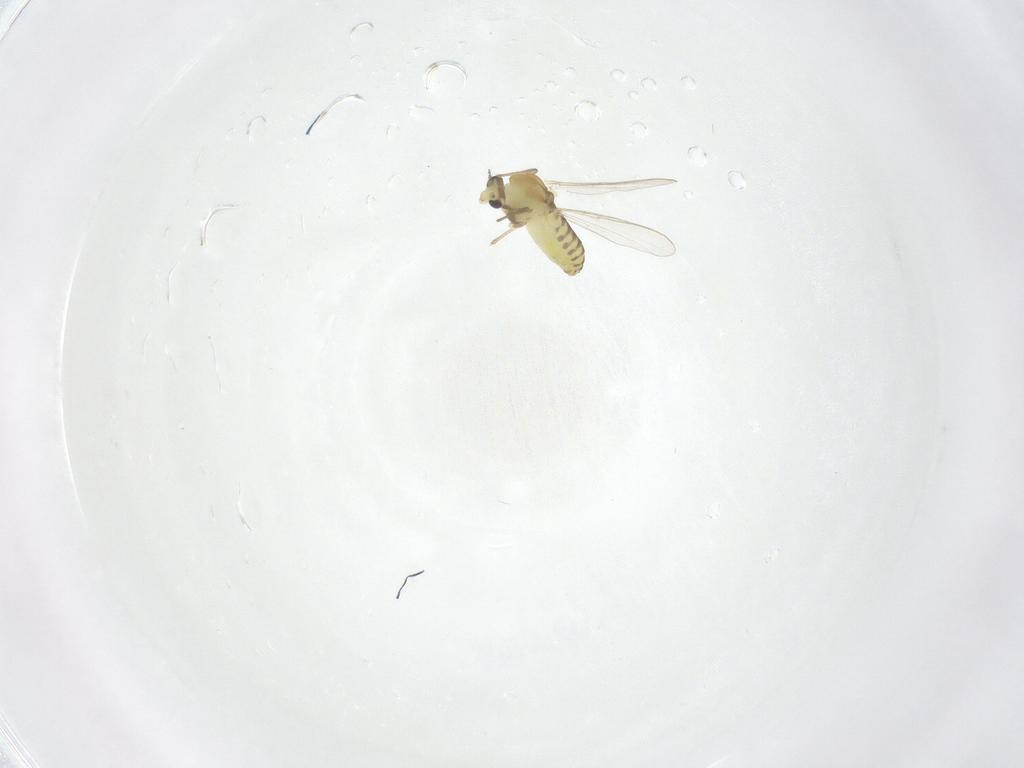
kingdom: Animalia
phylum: Arthropoda
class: Insecta
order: Diptera
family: Chironomidae
